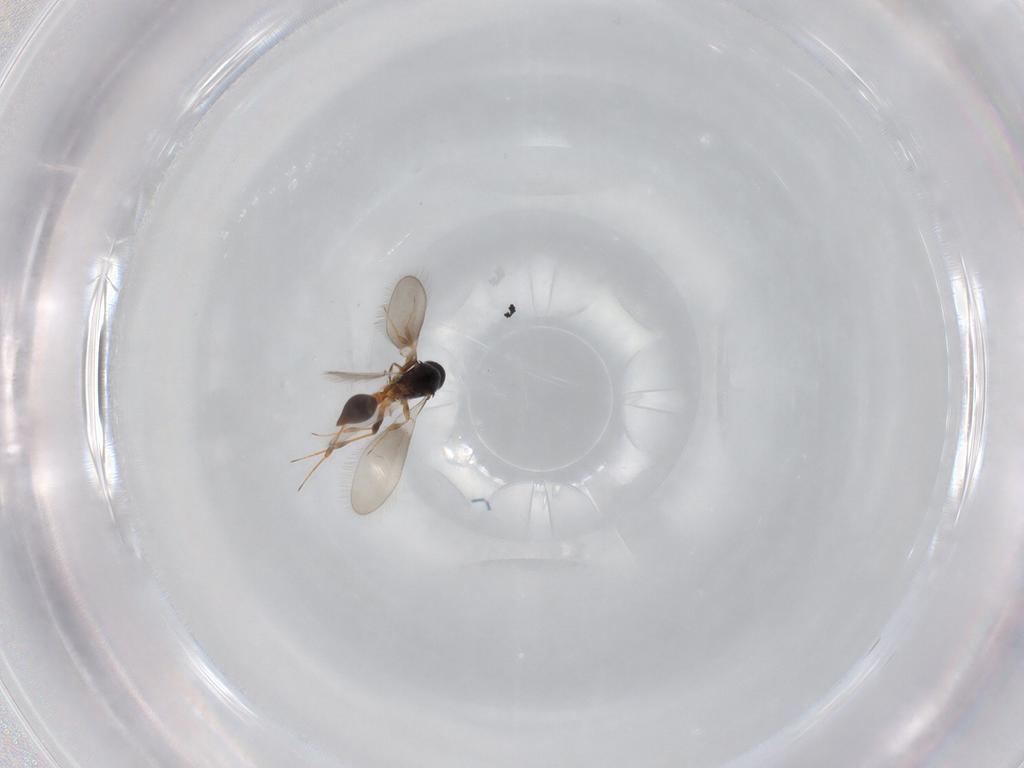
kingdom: Animalia
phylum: Arthropoda
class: Insecta
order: Hymenoptera
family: Platygastridae
